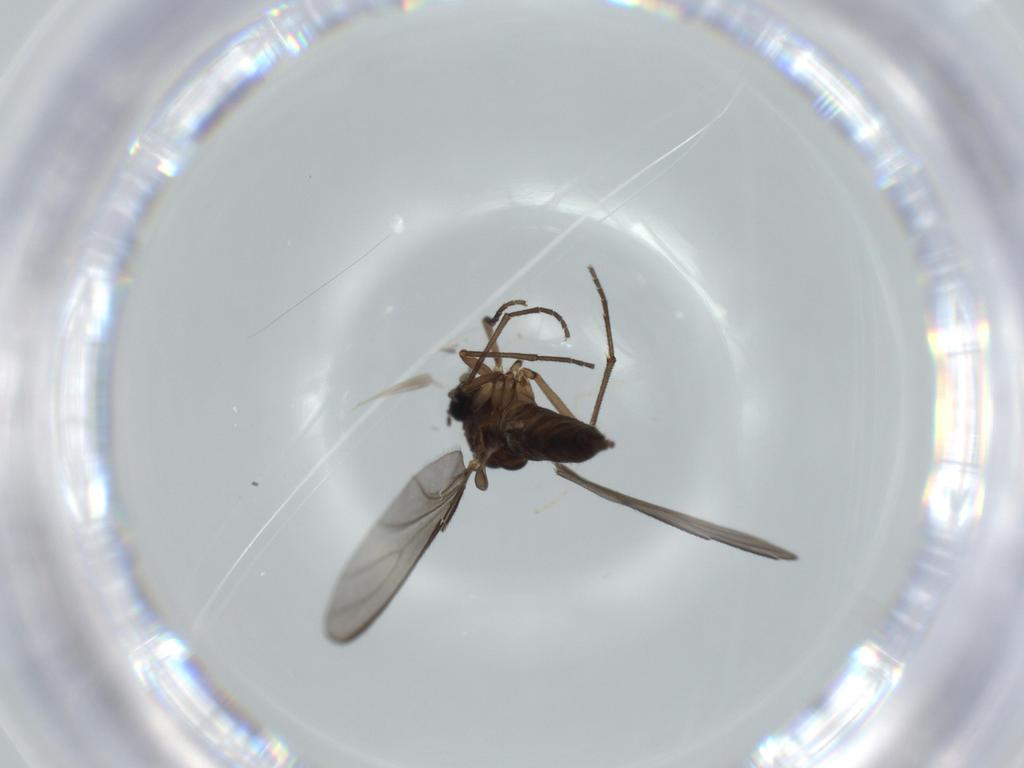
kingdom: Animalia
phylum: Arthropoda
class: Insecta
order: Diptera
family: Sciaridae
